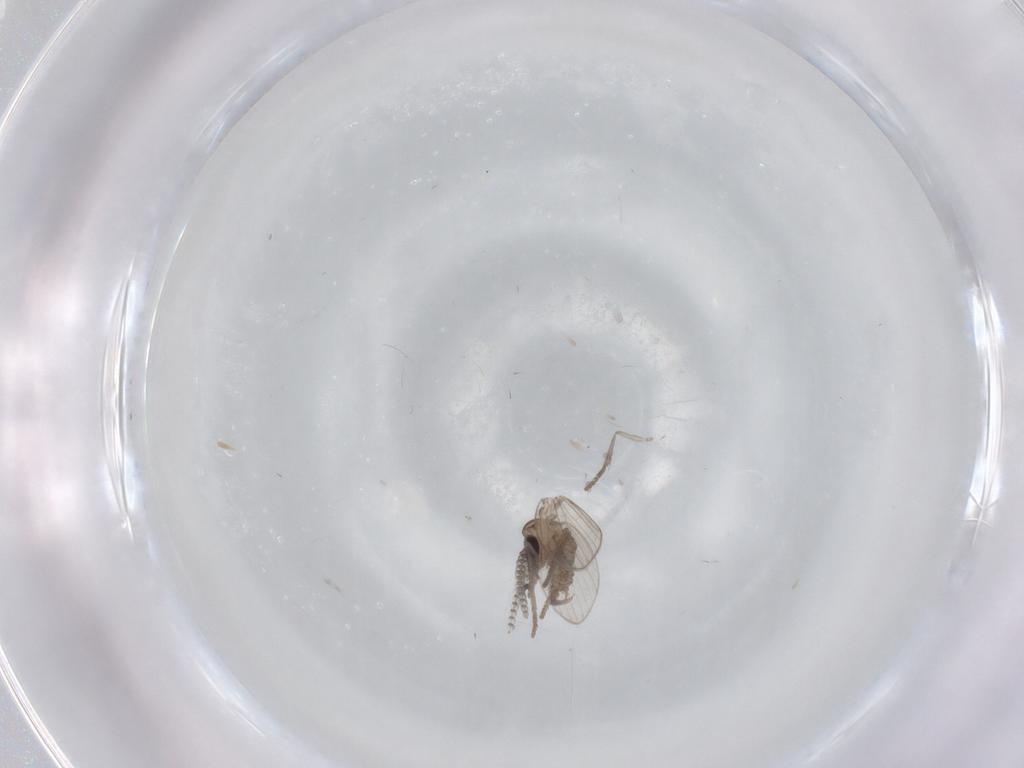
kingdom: Animalia
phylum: Arthropoda
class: Insecta
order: Diptera
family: Psychodidae
